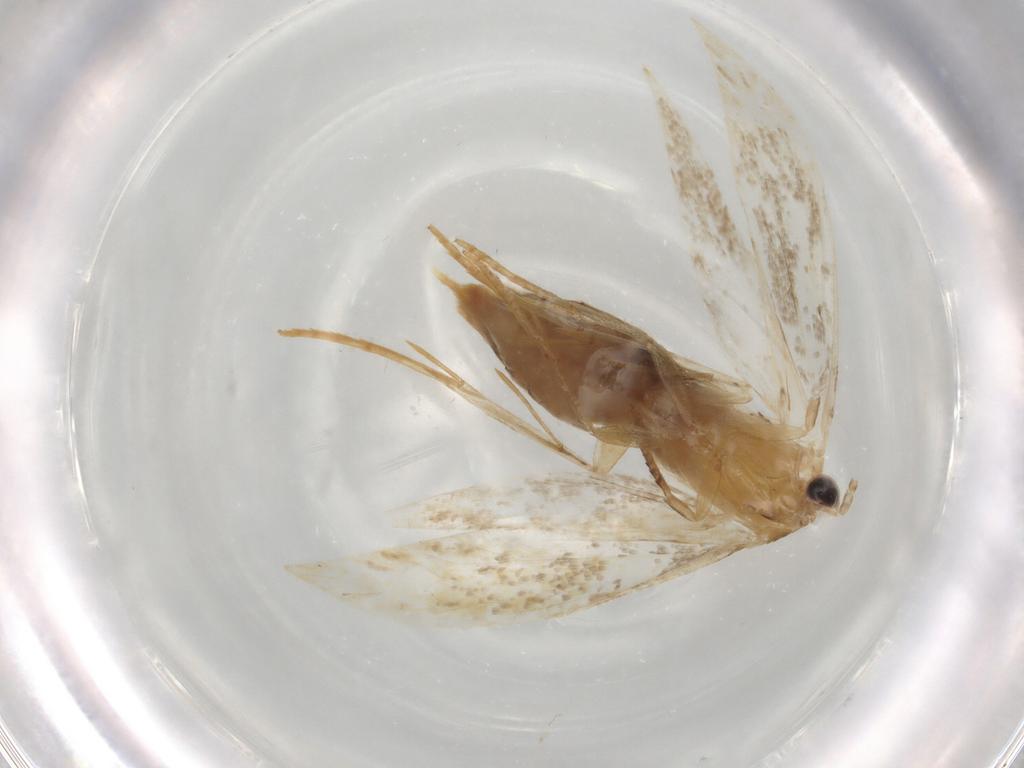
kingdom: Animalia
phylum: Arthropoda
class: Insecta
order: Lepidoptera
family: Tineidae
